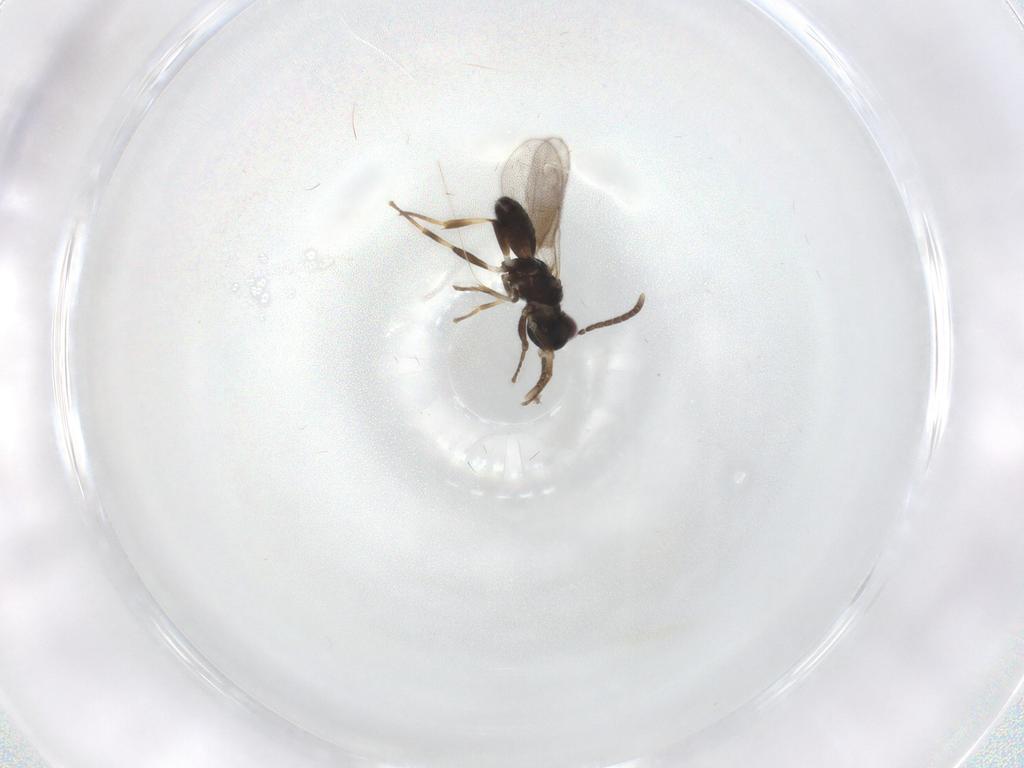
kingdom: Animalia
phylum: Arthropoda
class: Insecta
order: Hymenoptera
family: Eupelmidae
